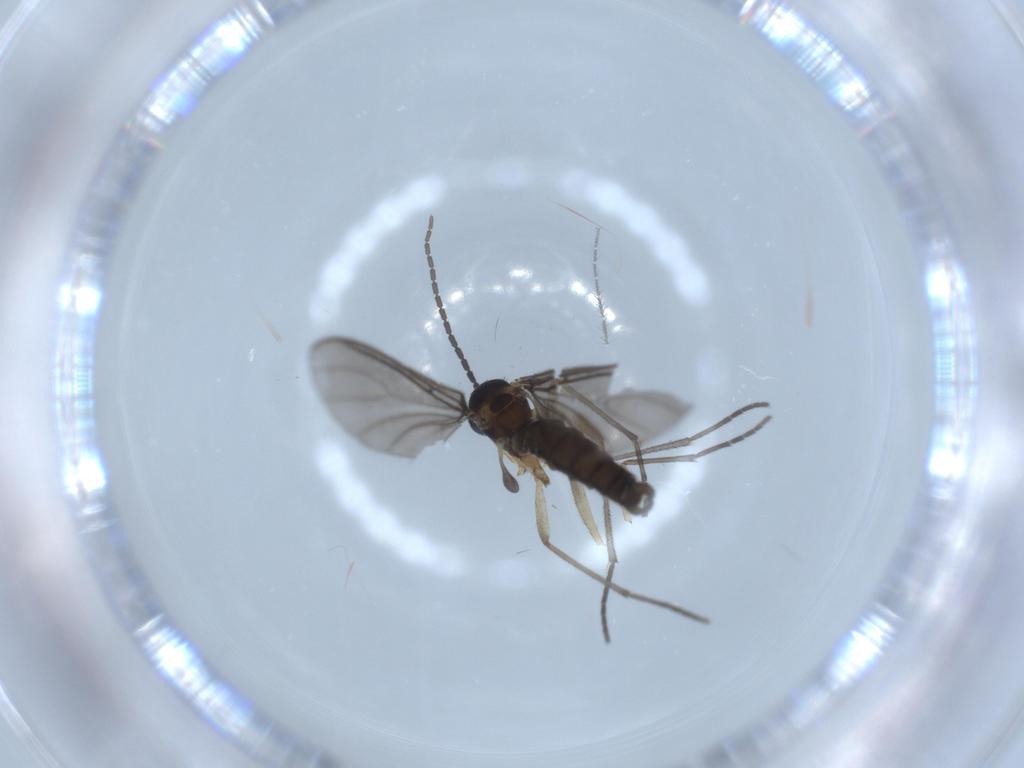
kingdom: Animalia
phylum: Arthropoda
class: Insecta
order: Diptera
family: Sciaridae
